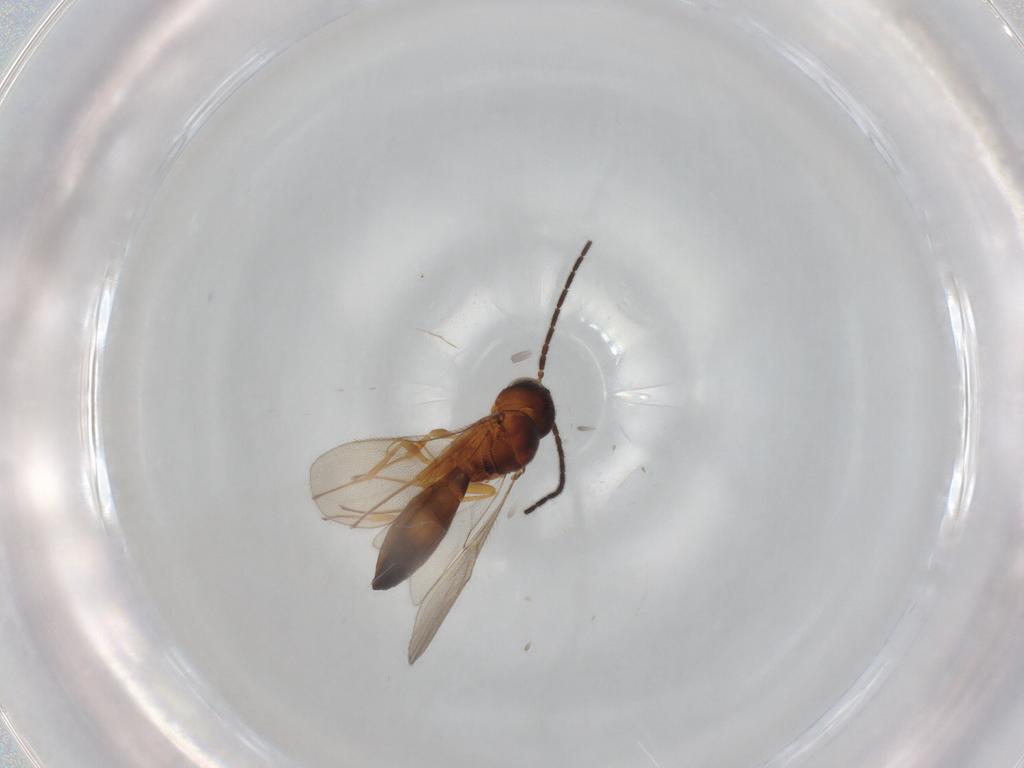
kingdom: Animalia
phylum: Arthropoda
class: Insecta
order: Hymenoptera
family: Scelionidae
